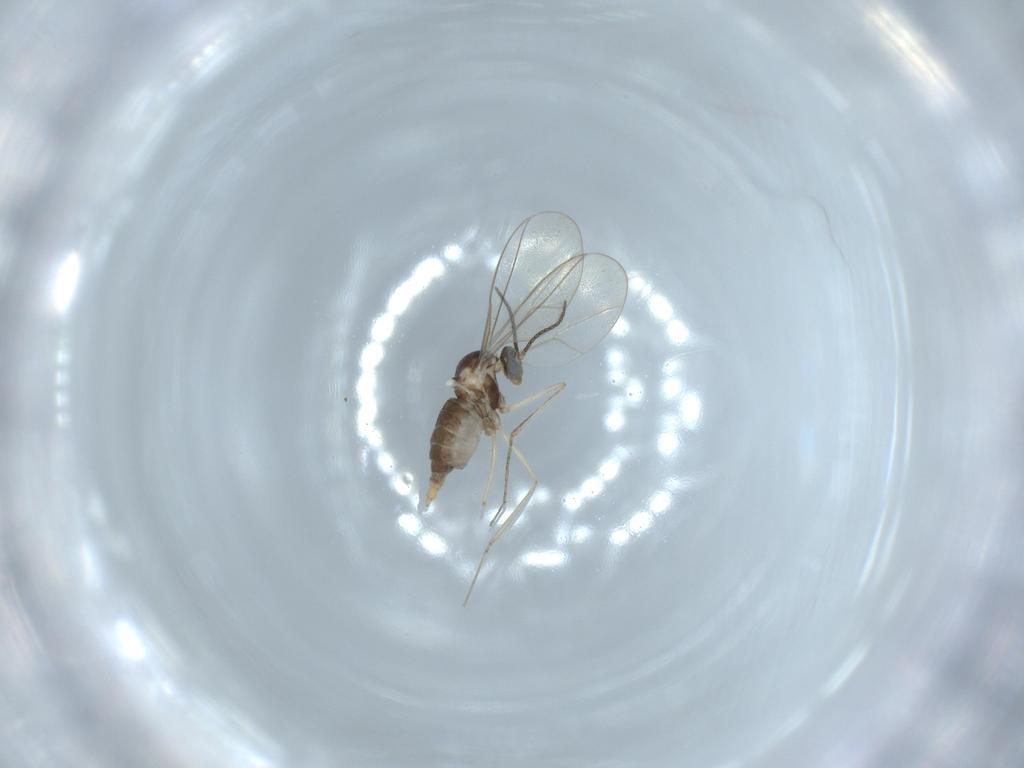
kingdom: Animalia
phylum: Arthropoda
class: Insecta
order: Diptera
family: Cecidomyiidae
